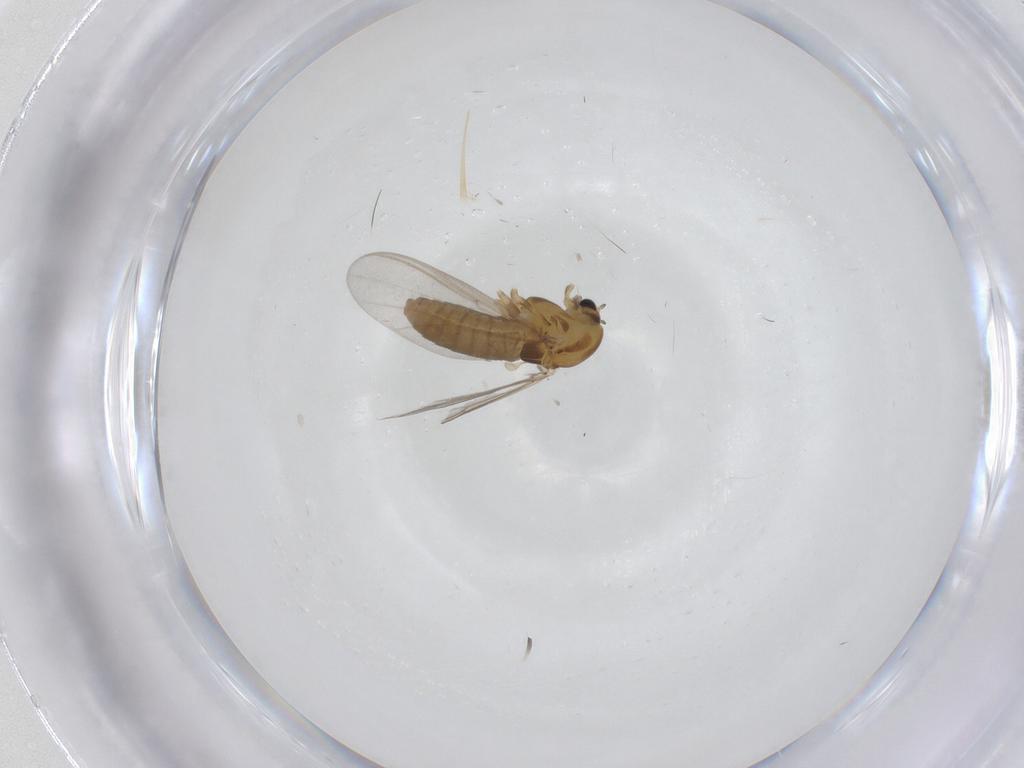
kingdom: Animalia
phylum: Arthropoda
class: Insecta
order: Diptera
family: Chironomidae
